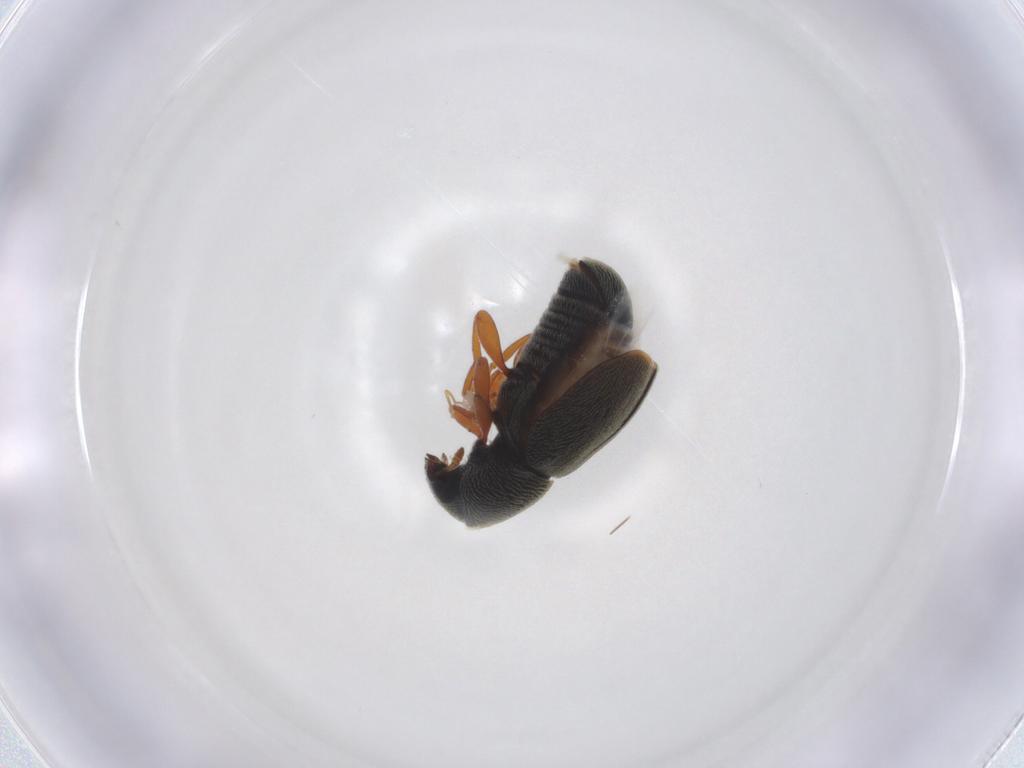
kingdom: Animalia
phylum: Arthropoda
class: Insecta
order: Coleoptera
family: Anthribidae
